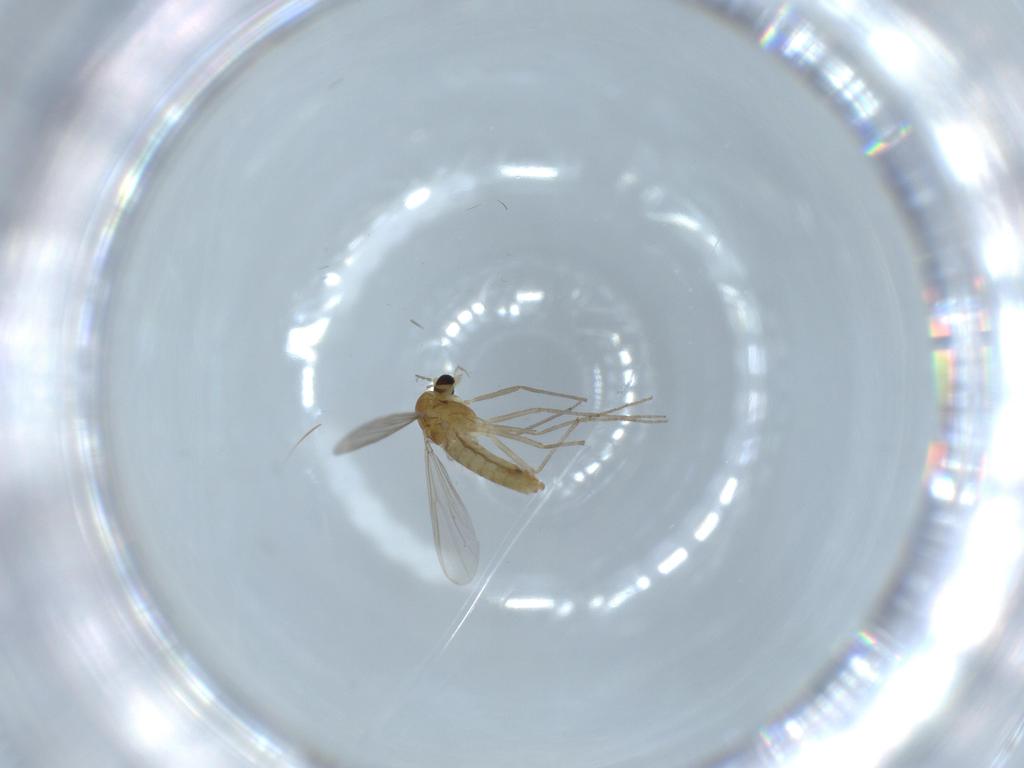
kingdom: Animalia
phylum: Arthropoda
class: Insecta
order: Diptera
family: Chironomidae
